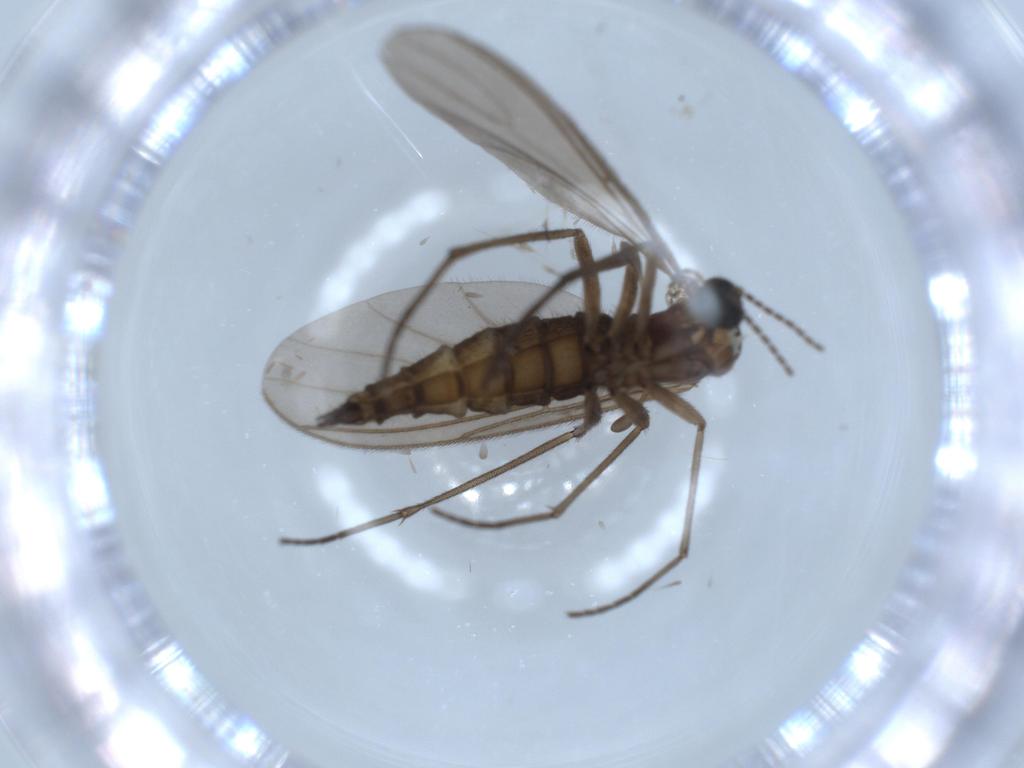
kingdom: Animalia
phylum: Arthropoda
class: Insecta
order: Diptera
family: Sciaridae
